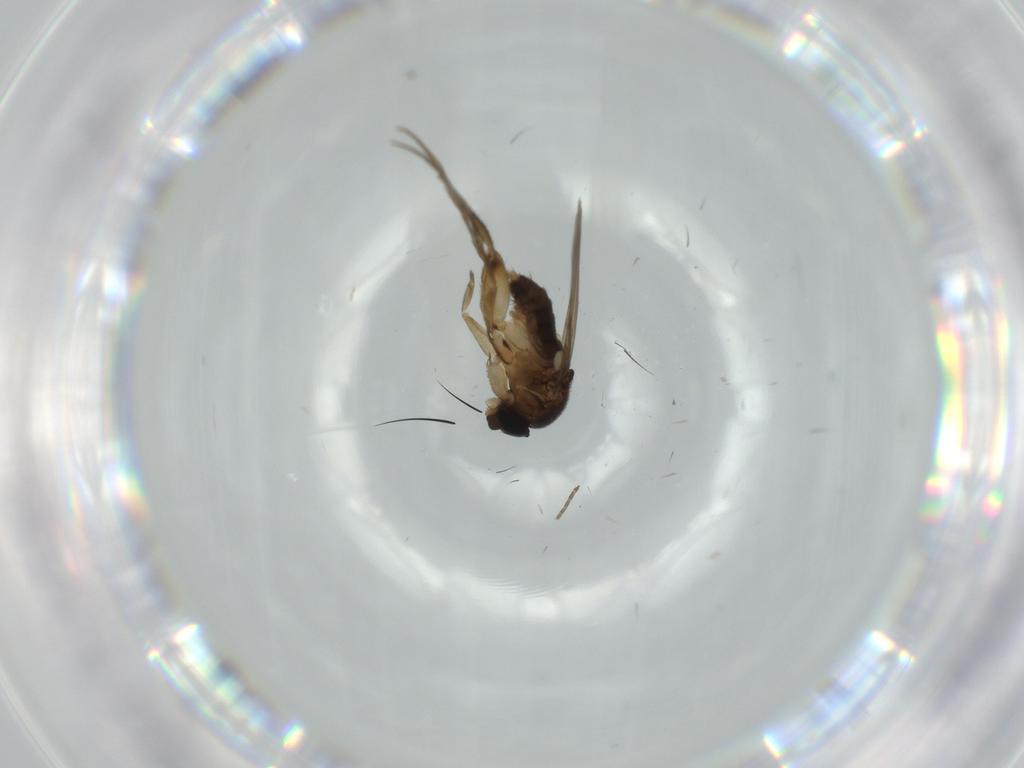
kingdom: Animalia
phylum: Arthropoda
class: Insecta
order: Diptera
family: Phoridae
